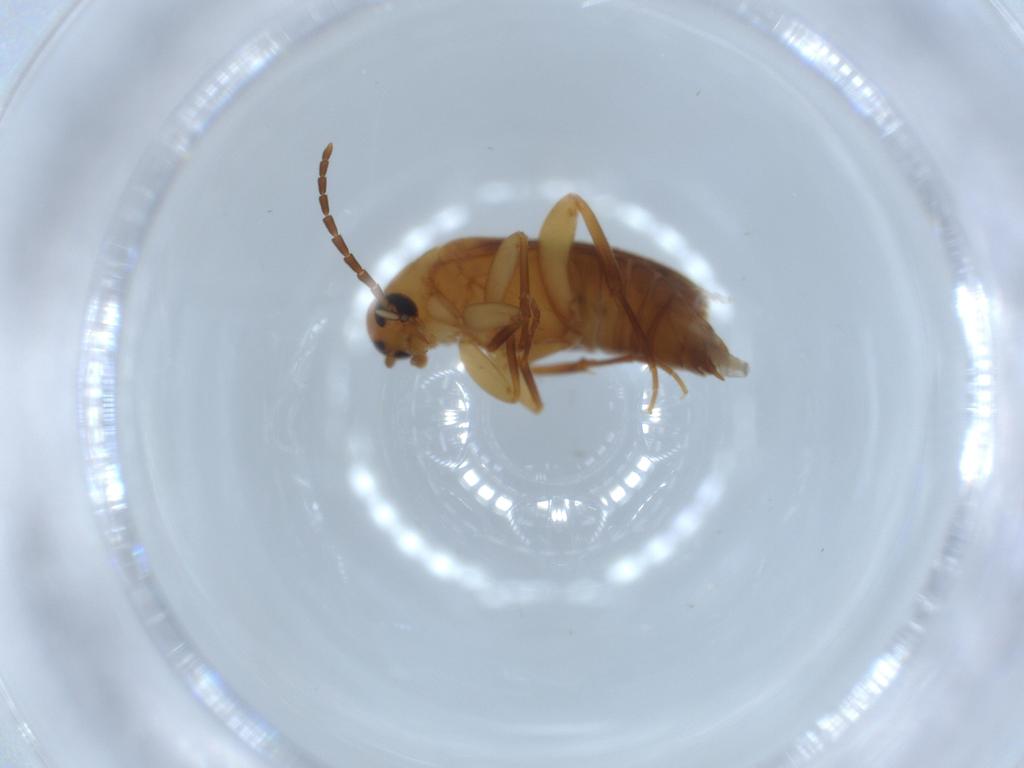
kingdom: Animalia
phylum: Arthropoda
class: Insecta
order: Coleoptera
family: Scraptiidae
